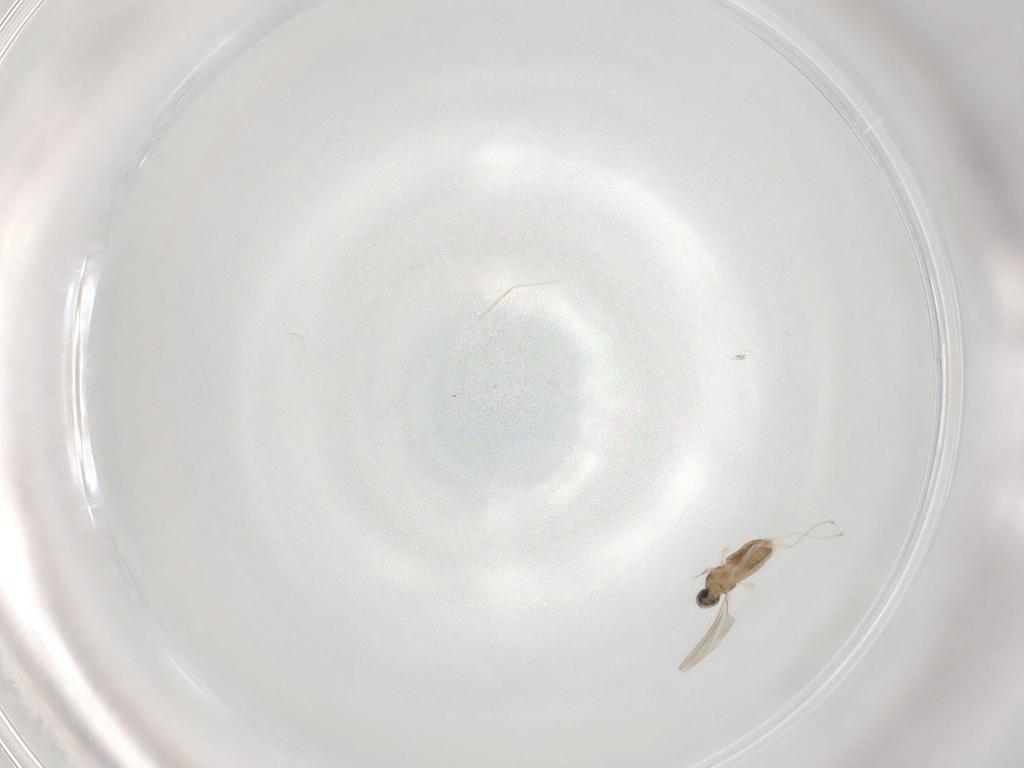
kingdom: Animalia
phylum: Arthropoda
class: Insecta
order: Diptera
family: Cecidomyiidae
